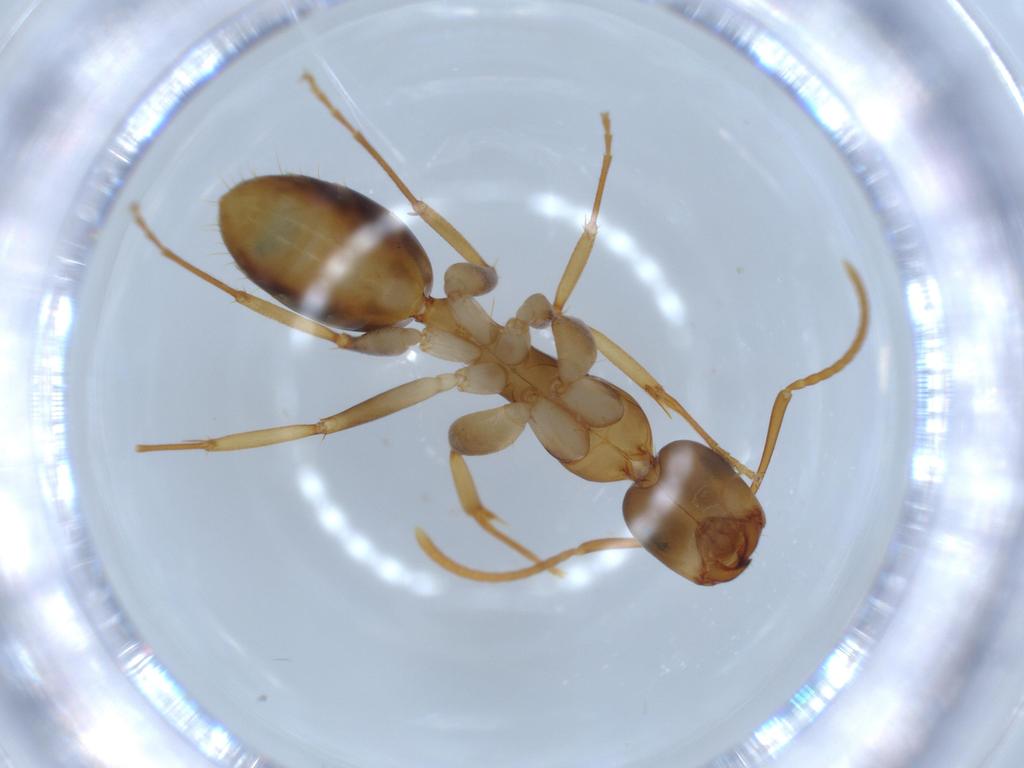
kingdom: Animalia
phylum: Arthropoda
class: Insecta
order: Hymenoptera
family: Formicidae
